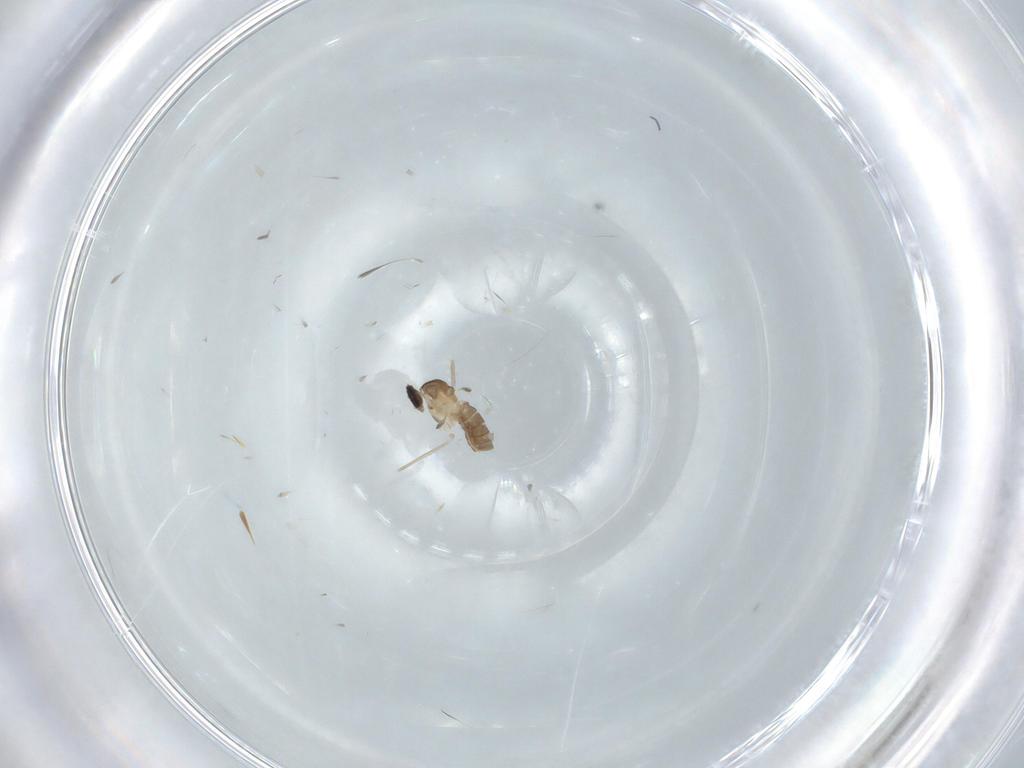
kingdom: Animalia
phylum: Arthropoda
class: Insecta
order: Diptera
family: Cecidomyiidae
